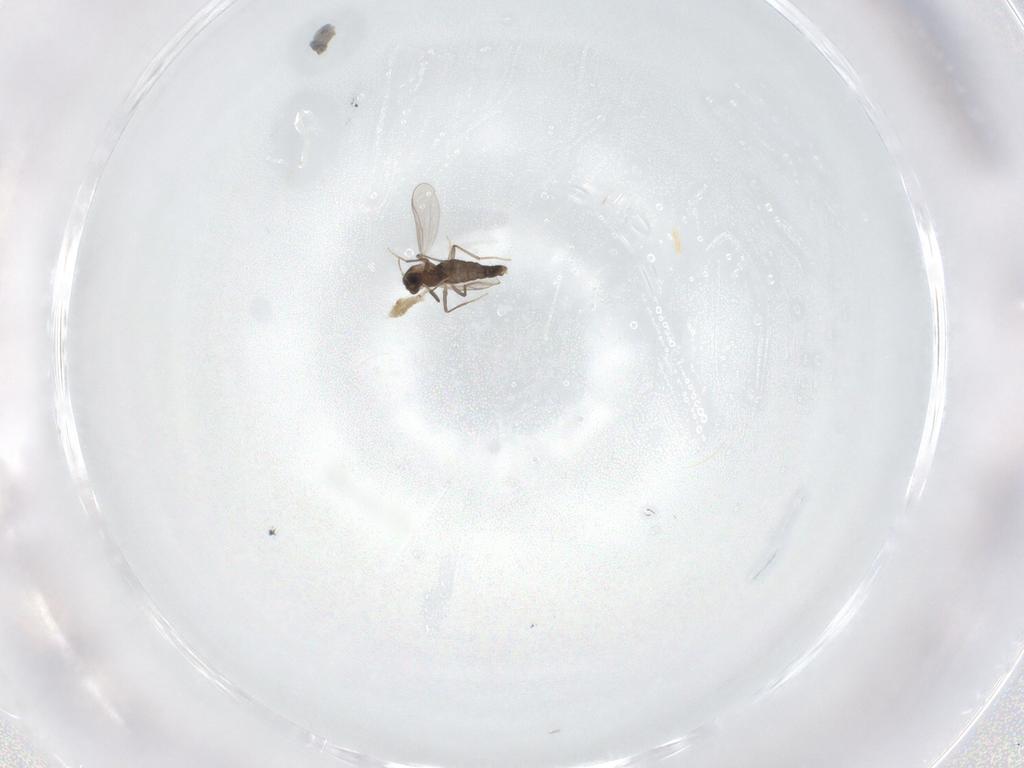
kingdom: Animalia
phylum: Arthropoda
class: Insecta
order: Diptera
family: Chironomidae
